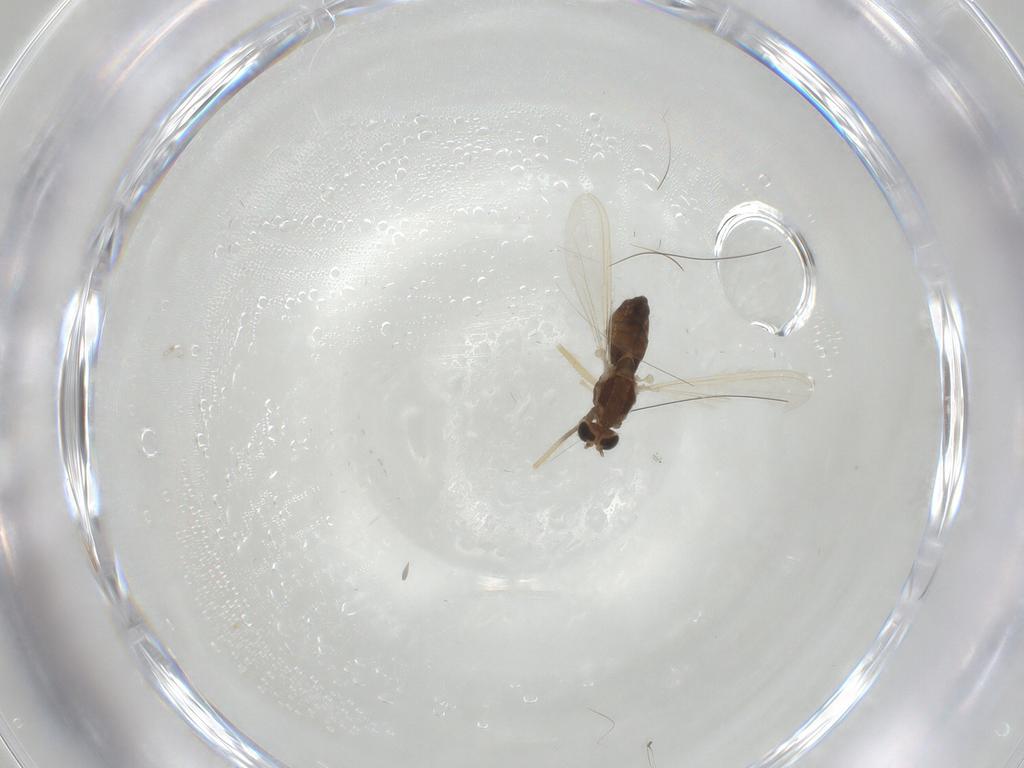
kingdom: Animalia
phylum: Arthropoda
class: Insecta
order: Diptera
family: Chironomidae
